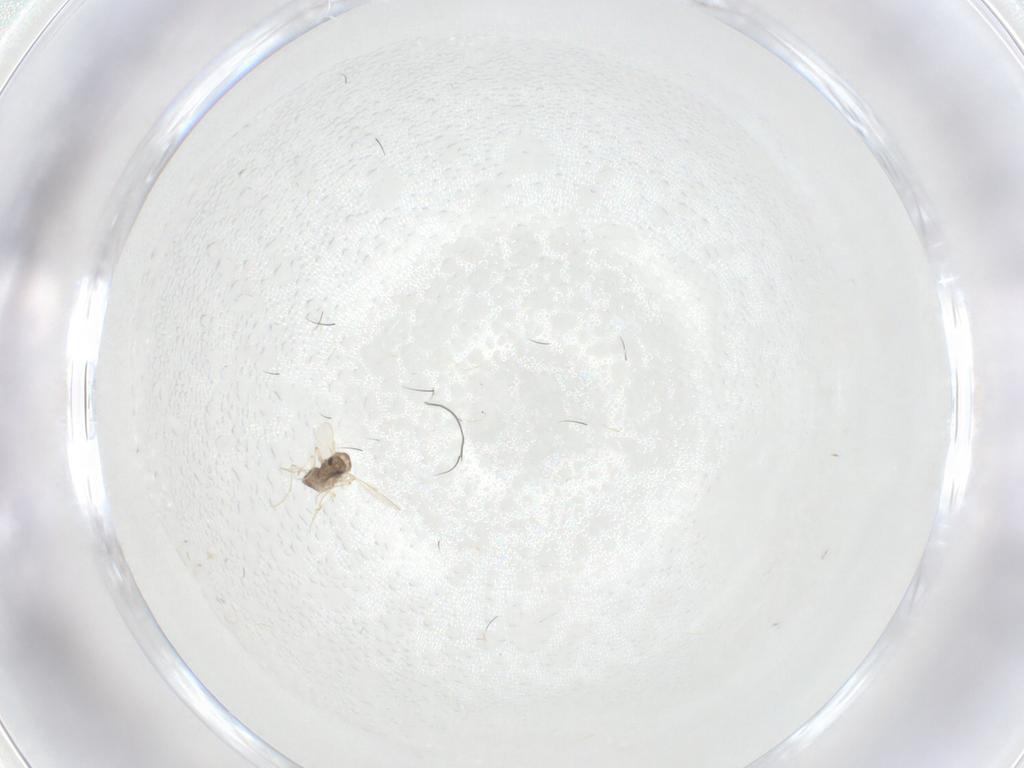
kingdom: Animalia
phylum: Arthropoda
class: Insecta
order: Diptera
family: Chironomidae
